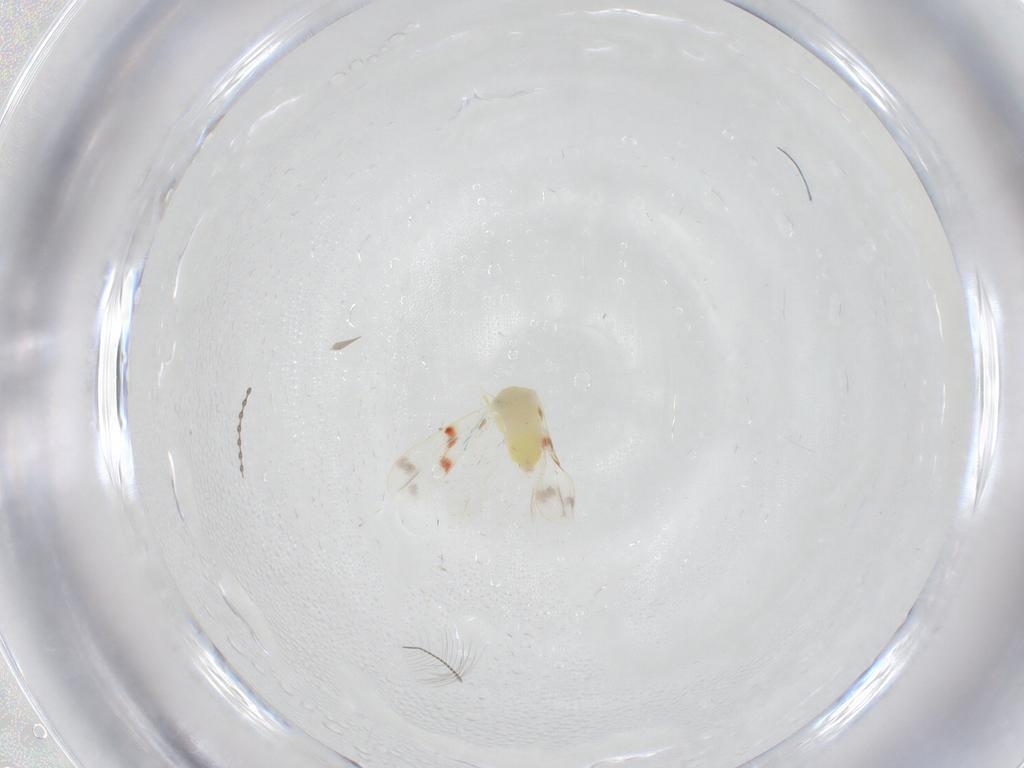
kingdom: Animalia
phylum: Arthropoda
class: Insecta
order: Hemiptera
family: Aleyrodidae
